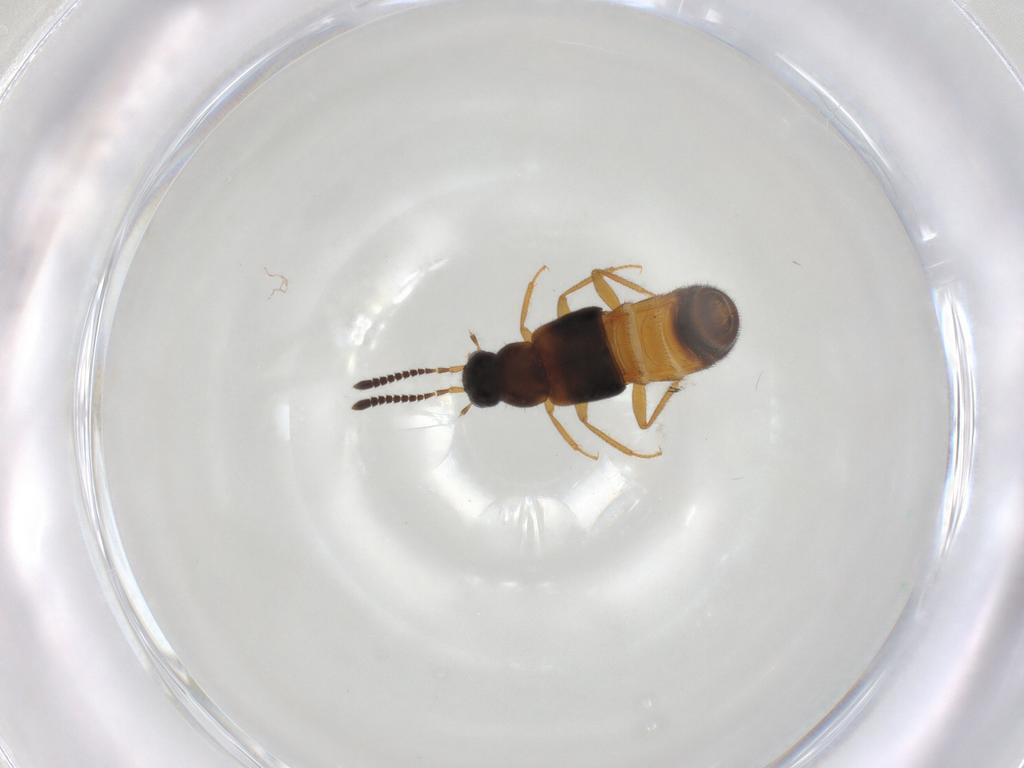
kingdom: Animalia
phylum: Arthropoda
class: Insecta
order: Coleoptera
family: Staphylinidae
